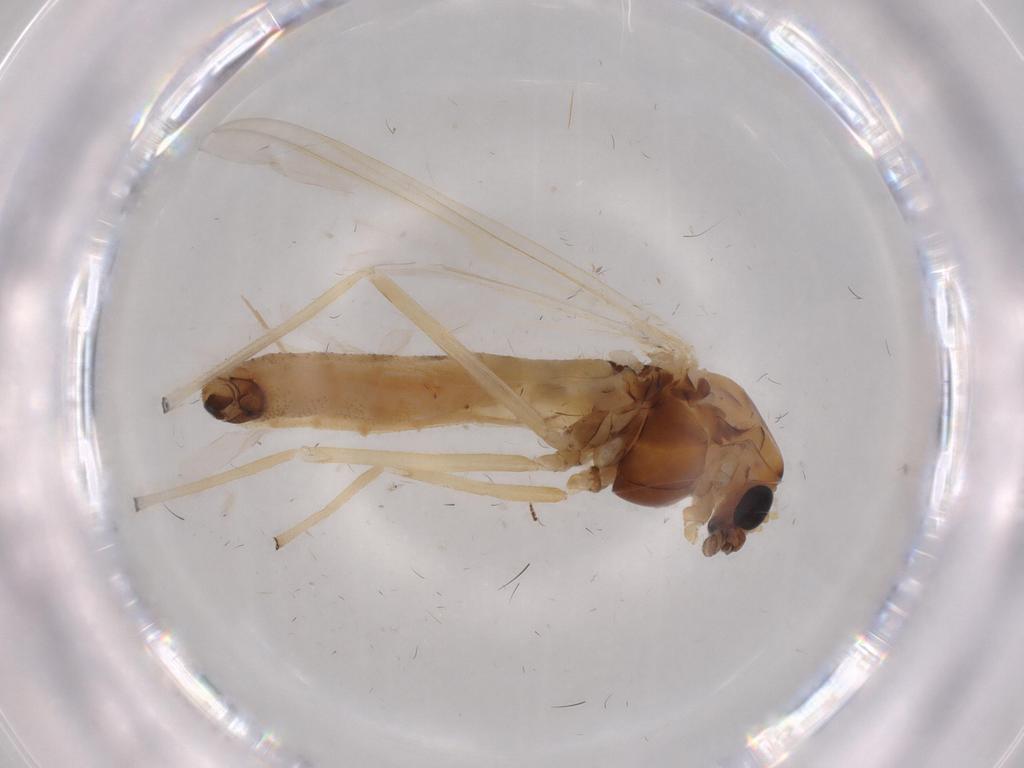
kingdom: Animalia
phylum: Arthropoda
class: Insecta
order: Diptera
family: Chironomidae
